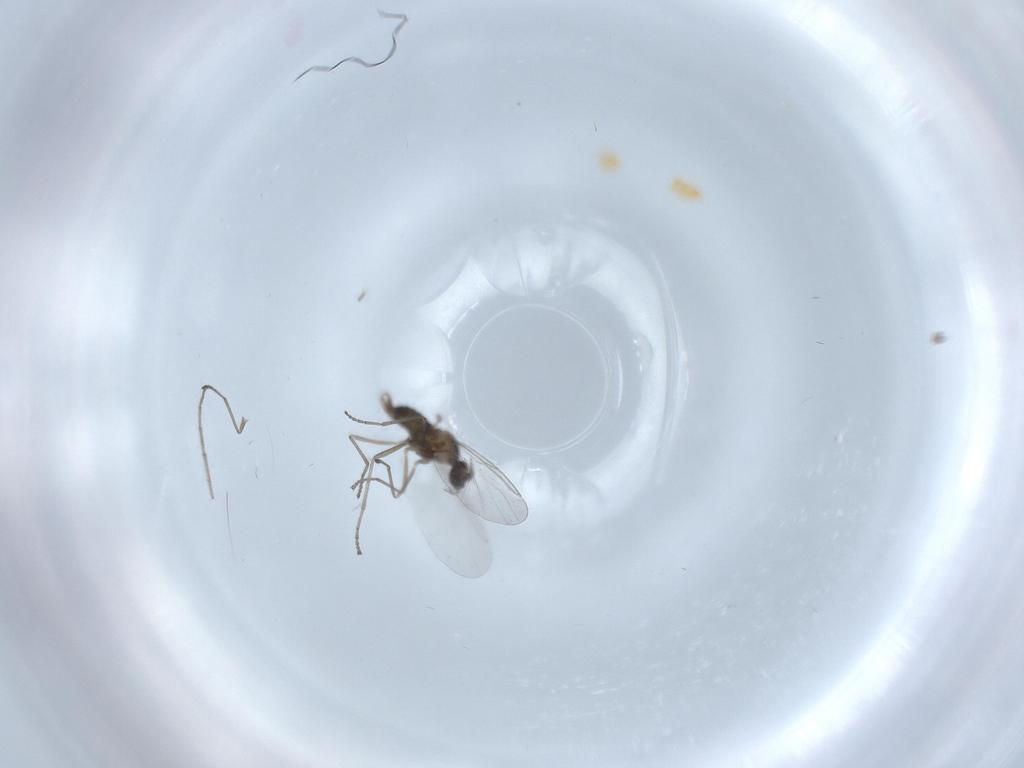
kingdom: Animalia
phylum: Arthropoda
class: Insecta
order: Diptera
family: Cecidomyiidae
